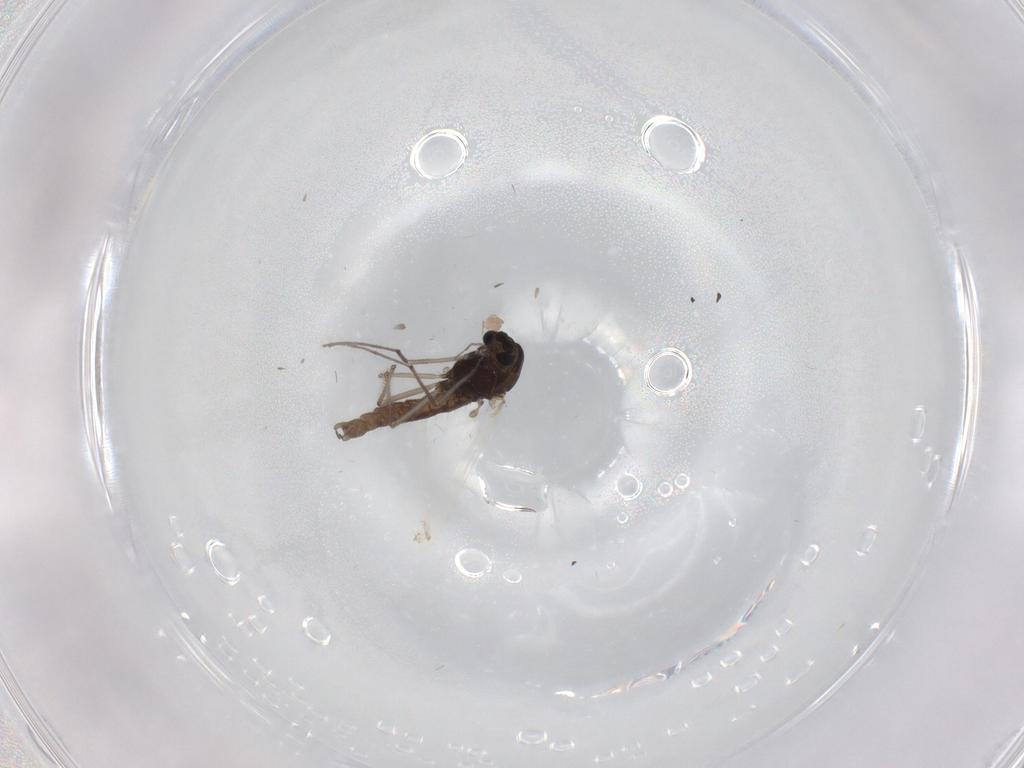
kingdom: Animalia
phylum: Arthropoda
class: Insecta
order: Diptera
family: Chironomidae
